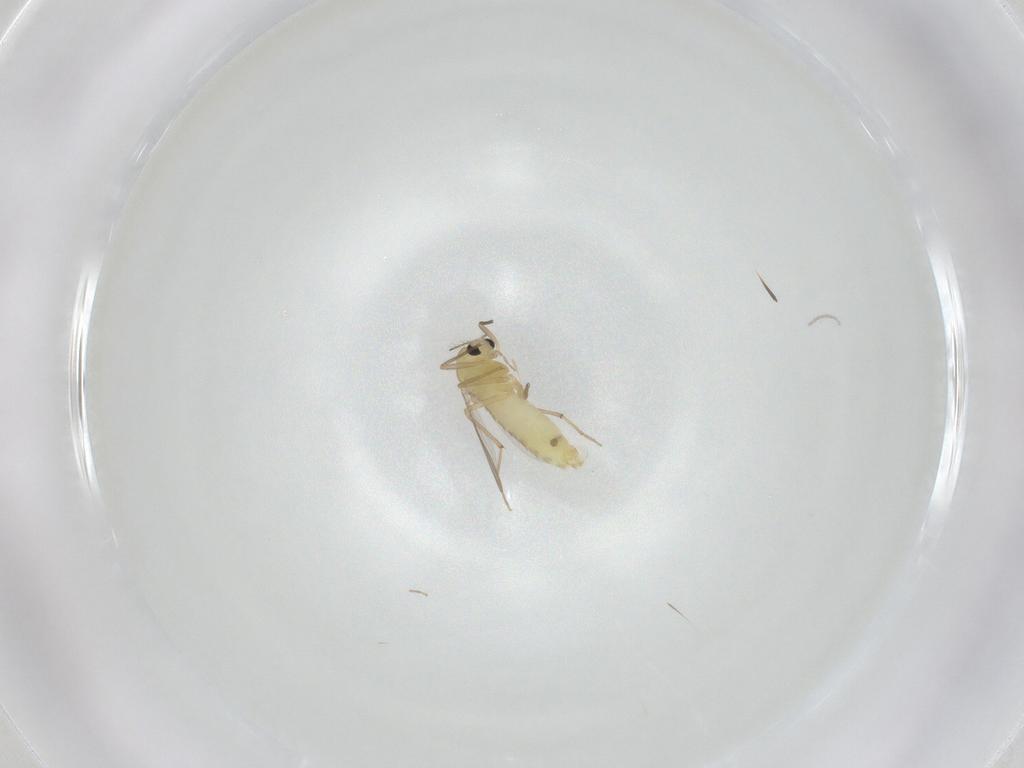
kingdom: Animalia
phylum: Arthropoda
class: Insecta
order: Diptera
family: Chironomidae
